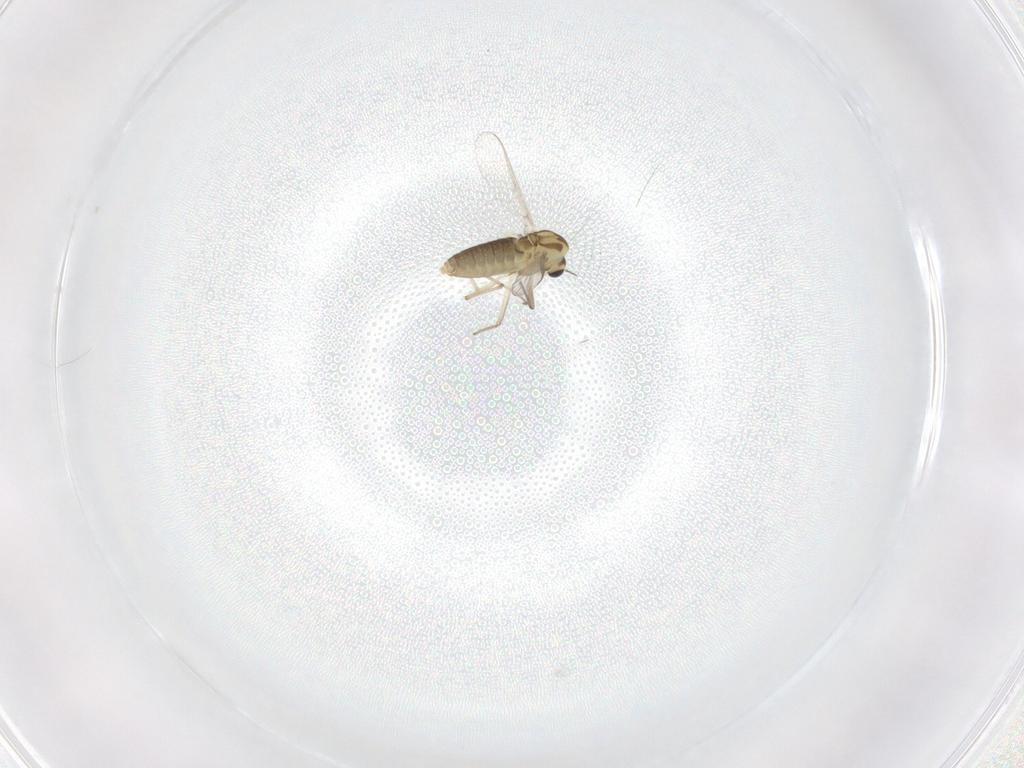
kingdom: Animalia
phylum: Arthropoda
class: Insecta
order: Diptera
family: Chironomidae
